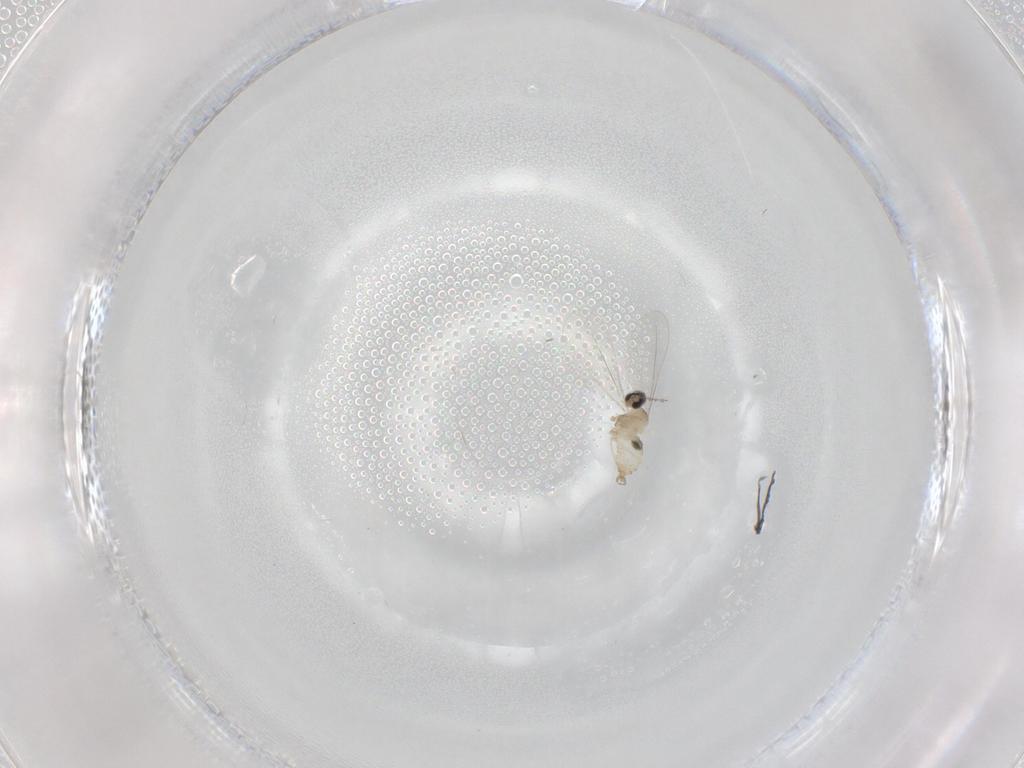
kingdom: Animalia
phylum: Arthropoda
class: Insecta
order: Diptera
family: Cecidomyiidae
